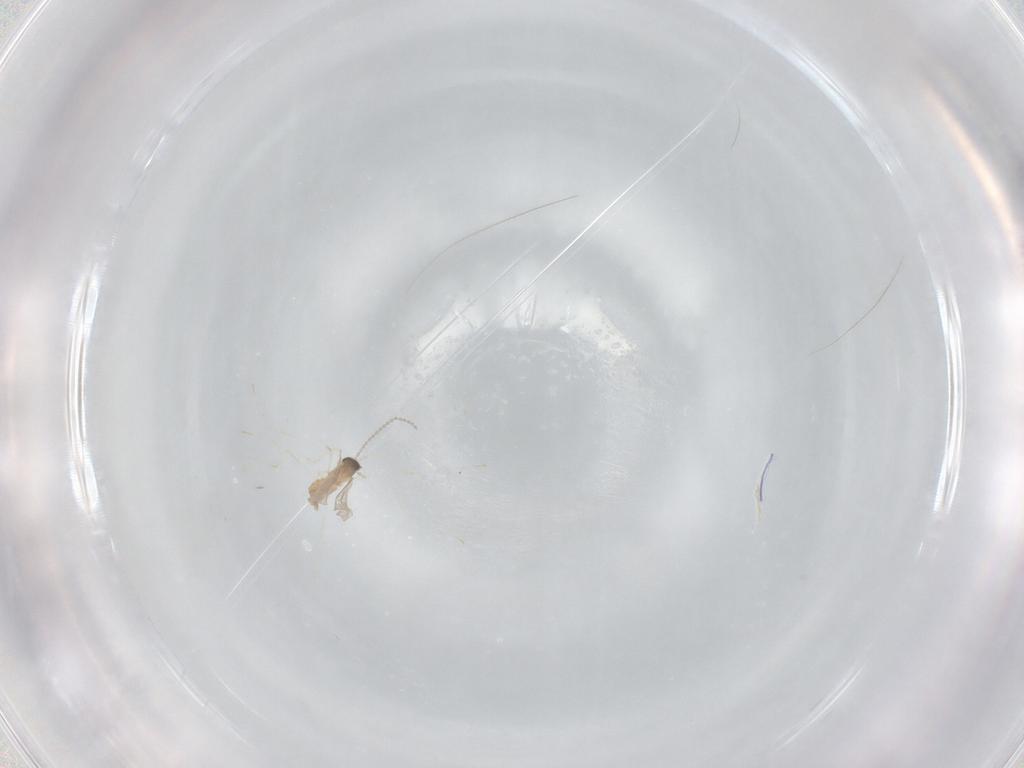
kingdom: Animalia
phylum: Arthropoda
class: Insecta
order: Diptera
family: Cecidomyiidae
